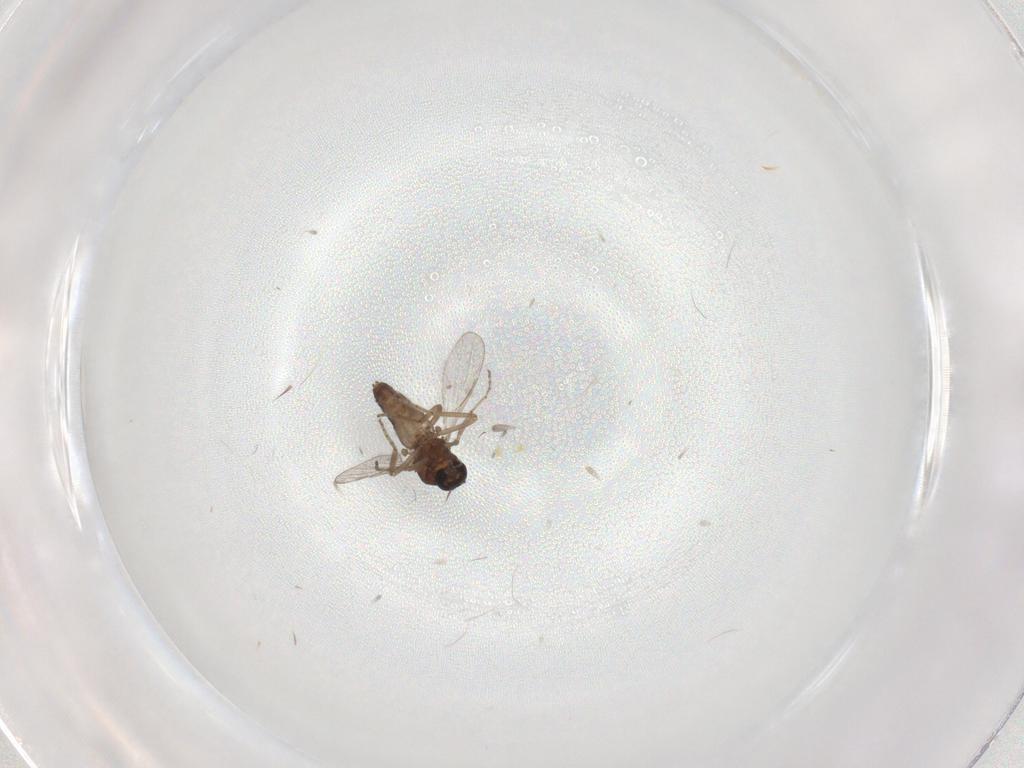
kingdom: Animalia
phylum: Arthropoda
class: Insecta
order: Diptera
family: Ceratopogonidae
